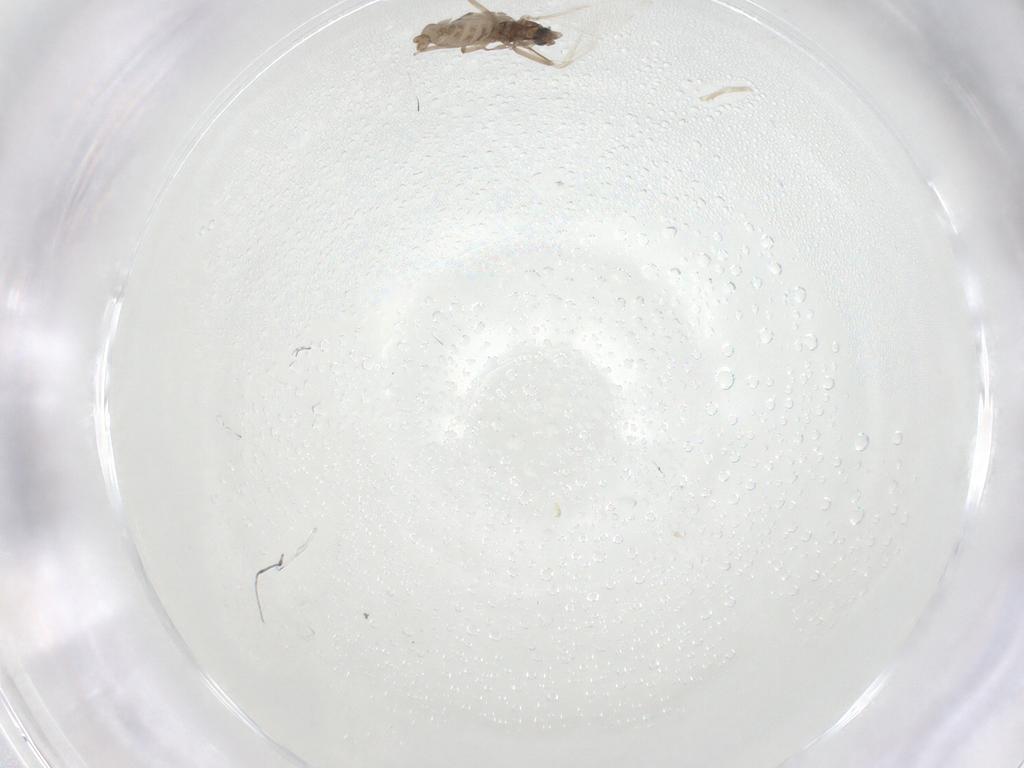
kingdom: Animalia
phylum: Arthropoda
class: Insecta
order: Diptera
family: Cecidomyiidae
